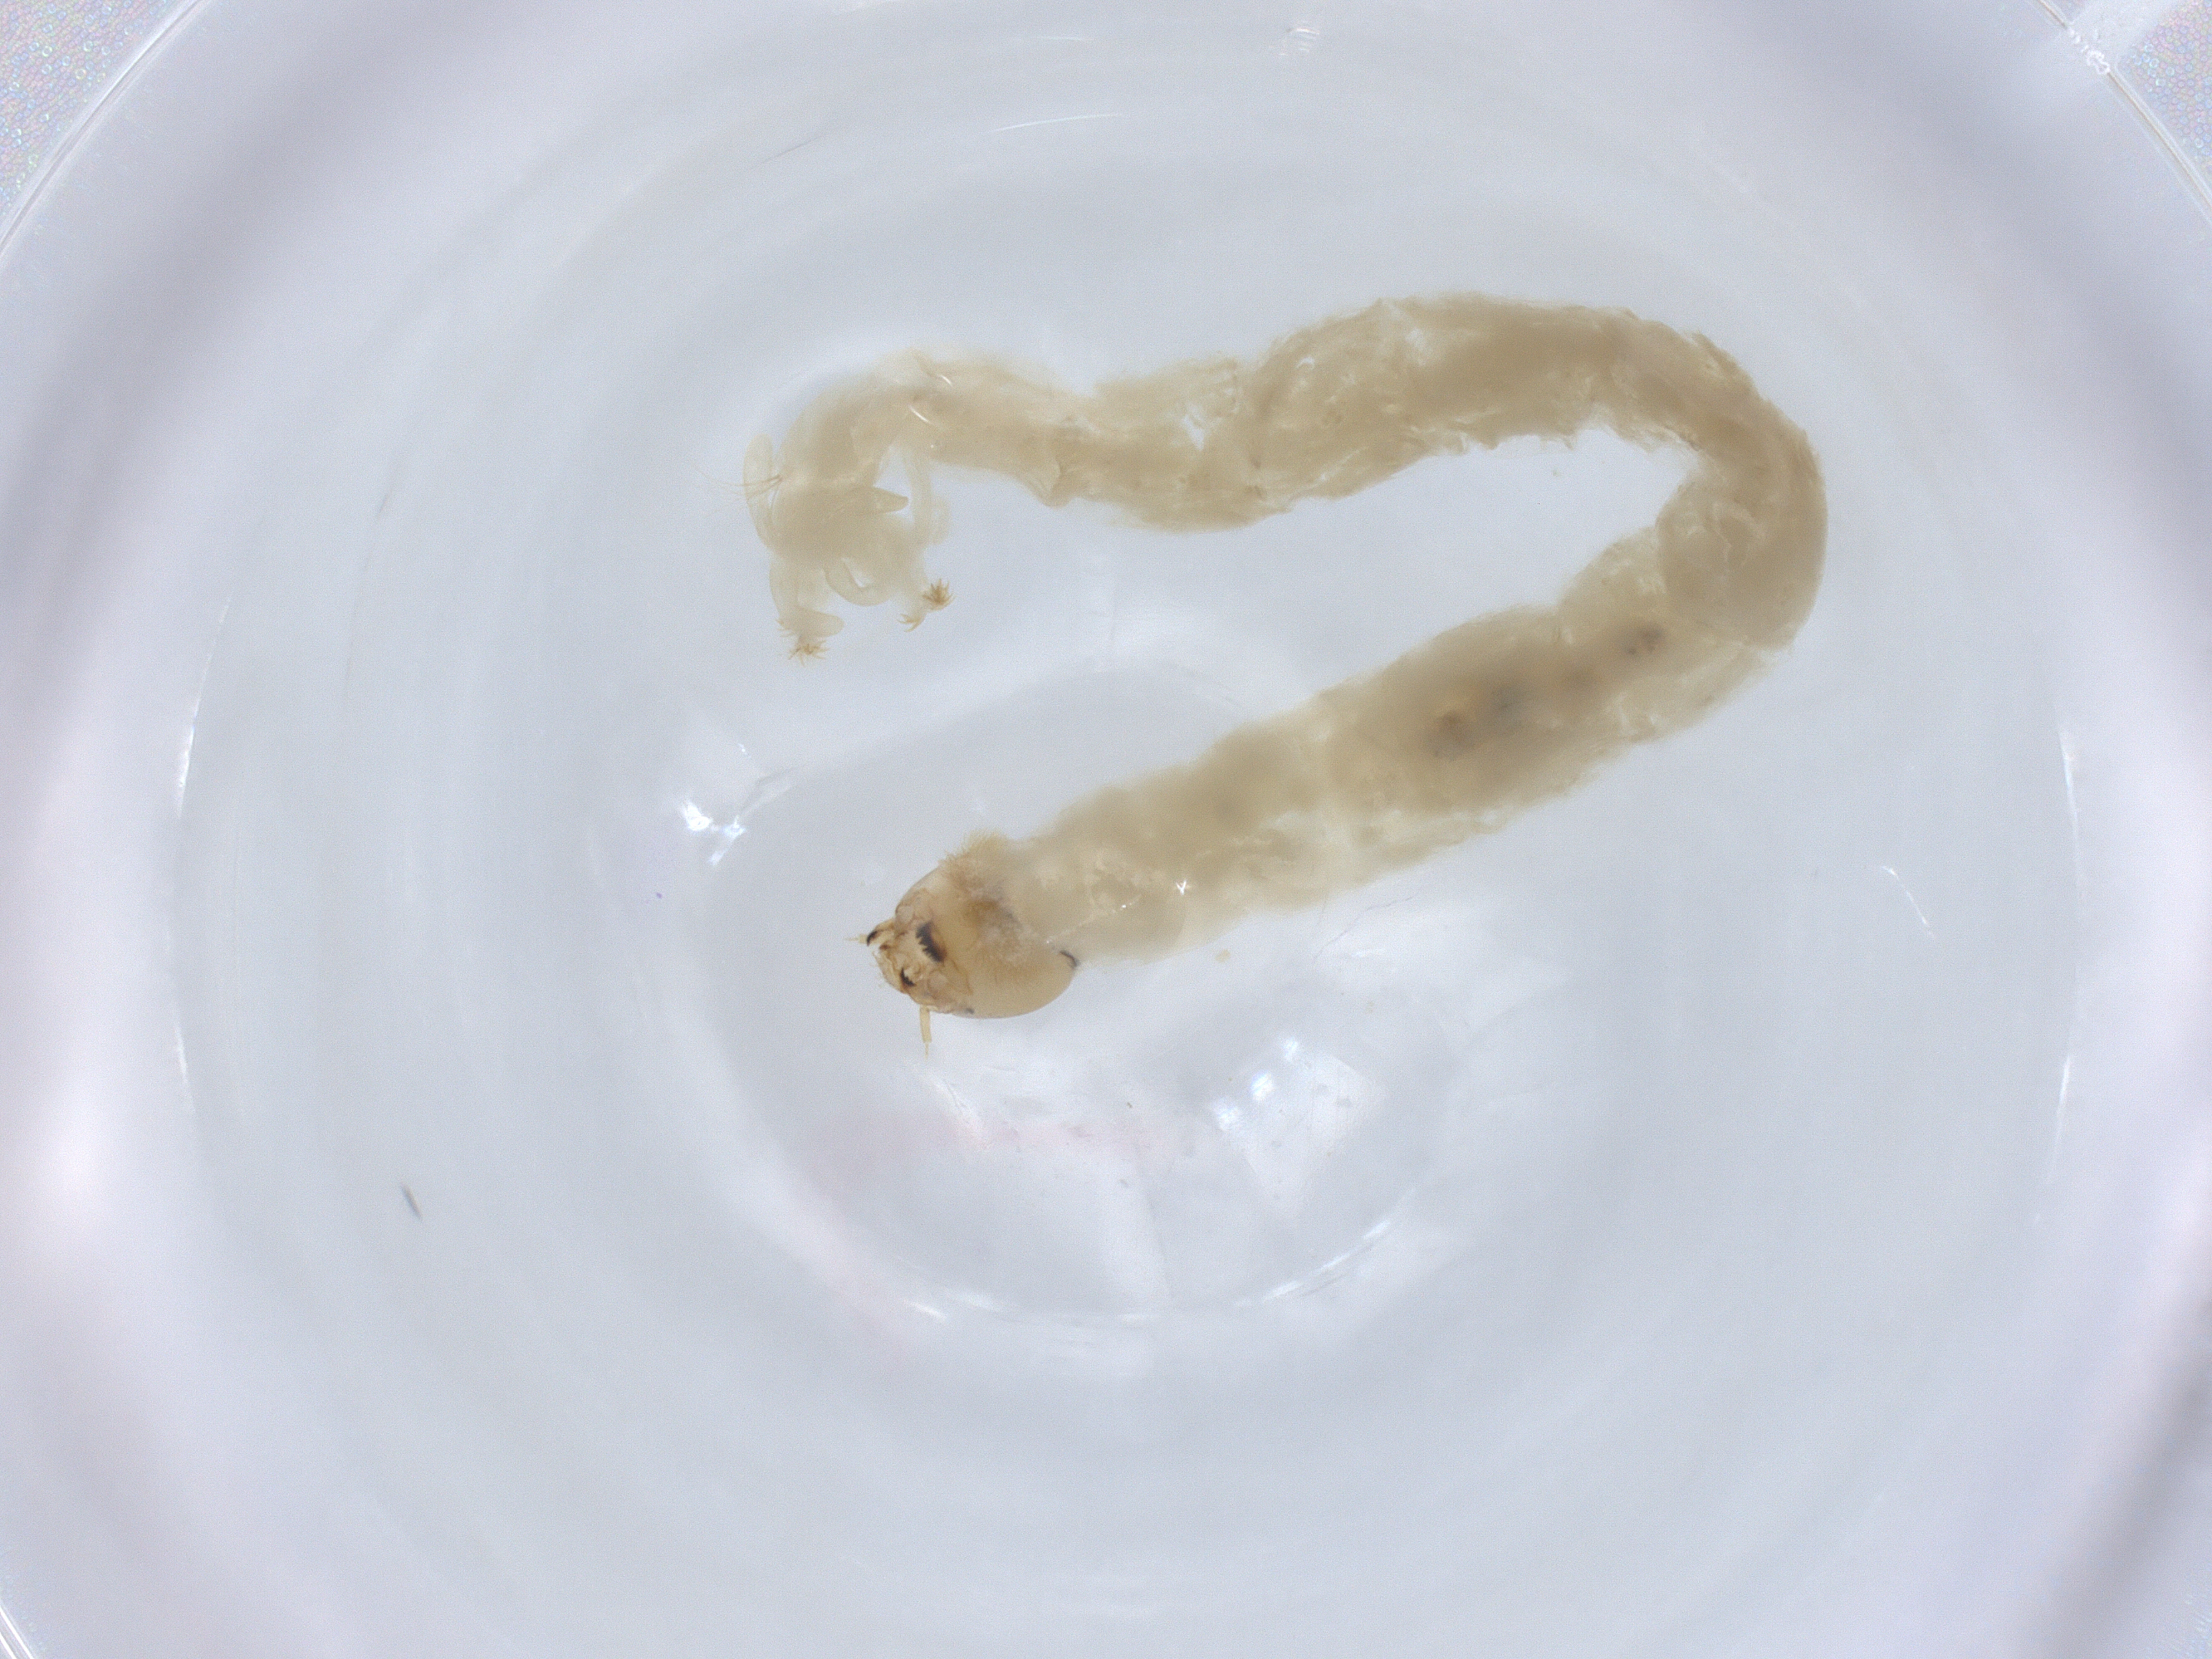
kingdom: Animalia
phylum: Arthropoda
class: Insecta
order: Diptera
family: Chironomidae
